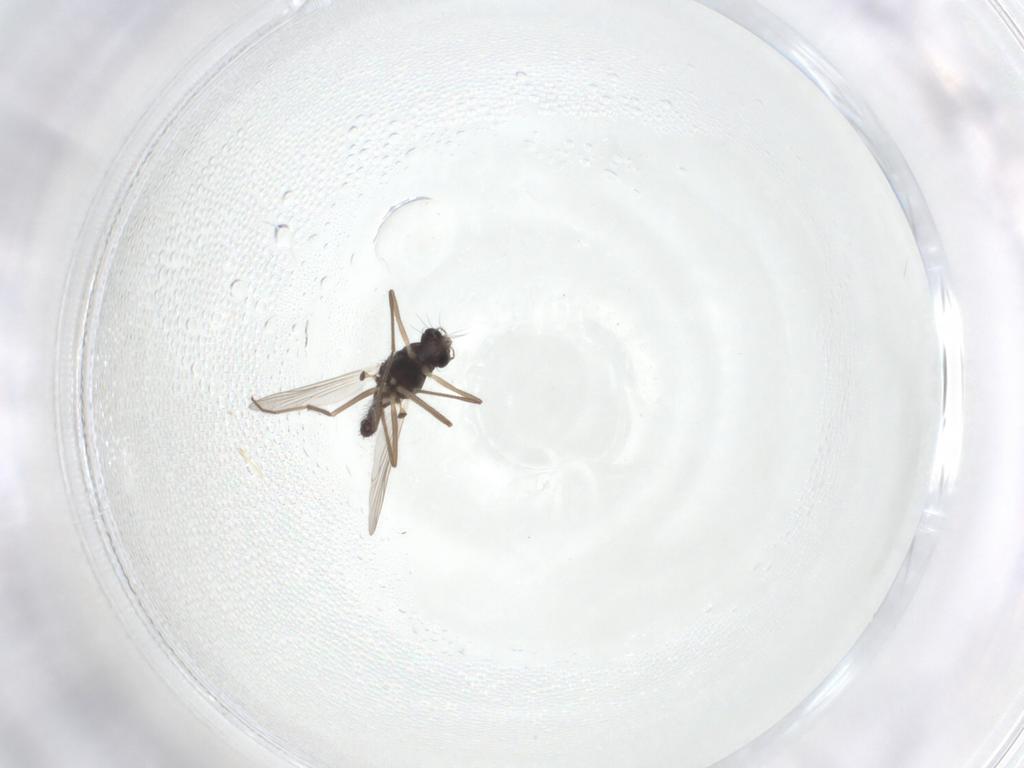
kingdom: Animalia
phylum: Arthropoda
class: Insecta
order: Diptera
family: Chironomidae
